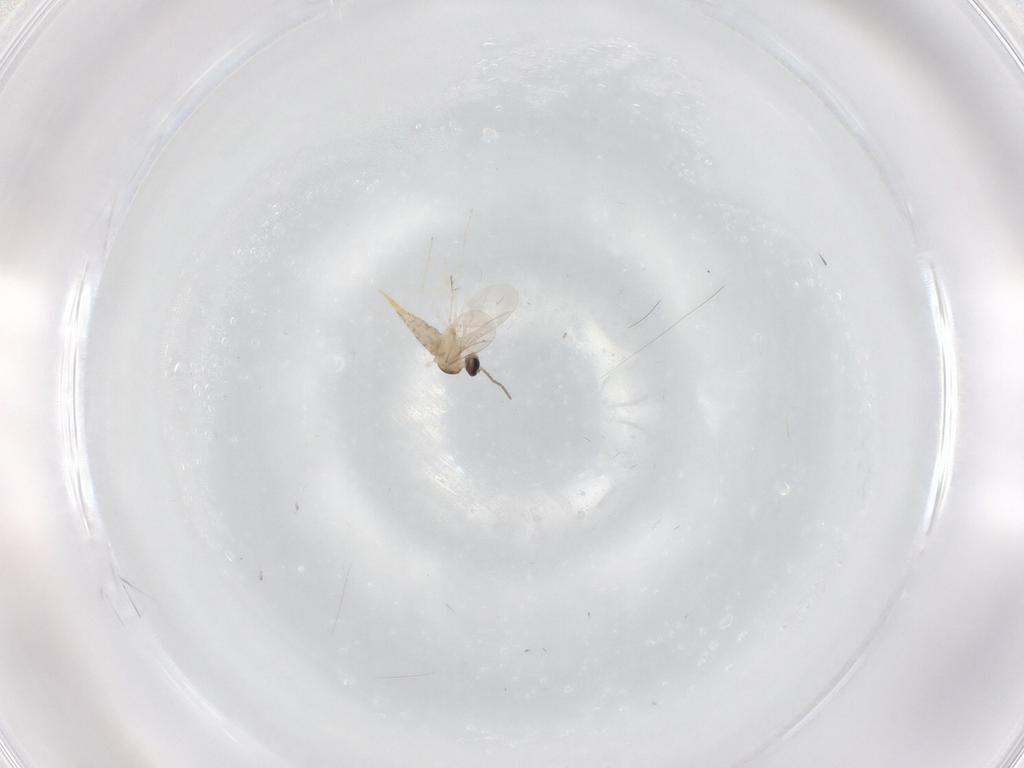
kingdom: Animalia
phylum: Arthropoda
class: Insecta
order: Diptera
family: Cecidomyiidae
